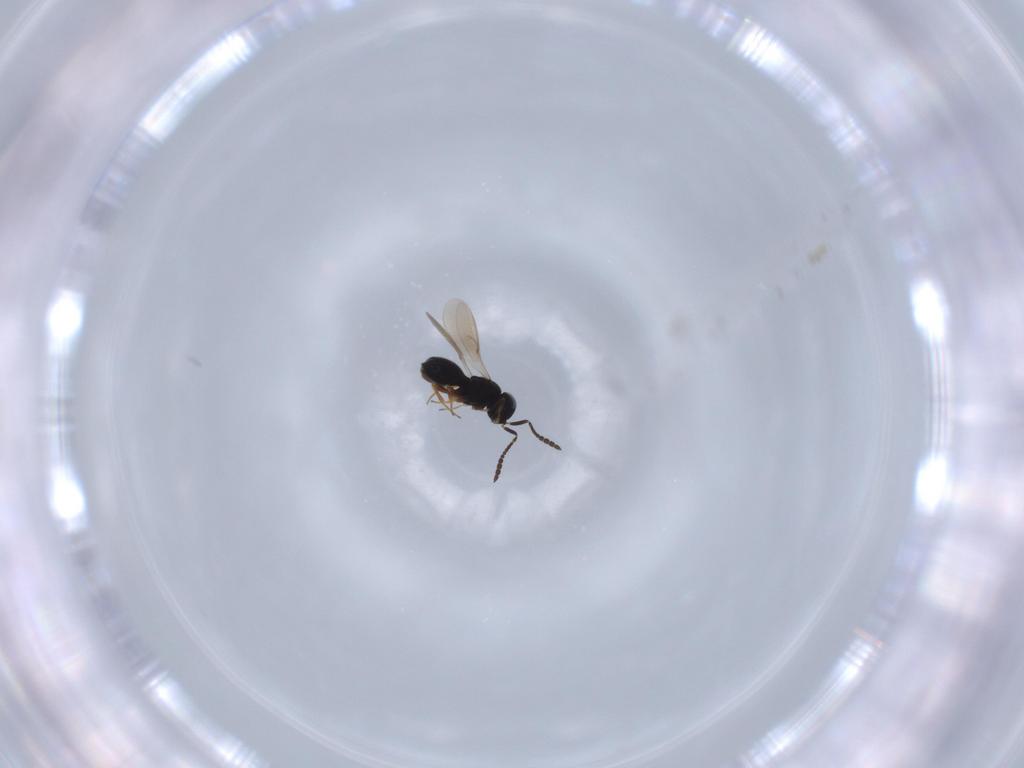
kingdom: Animalia
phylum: Arthropoda
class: Insecta
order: Hymenoptera
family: Scelionidae
